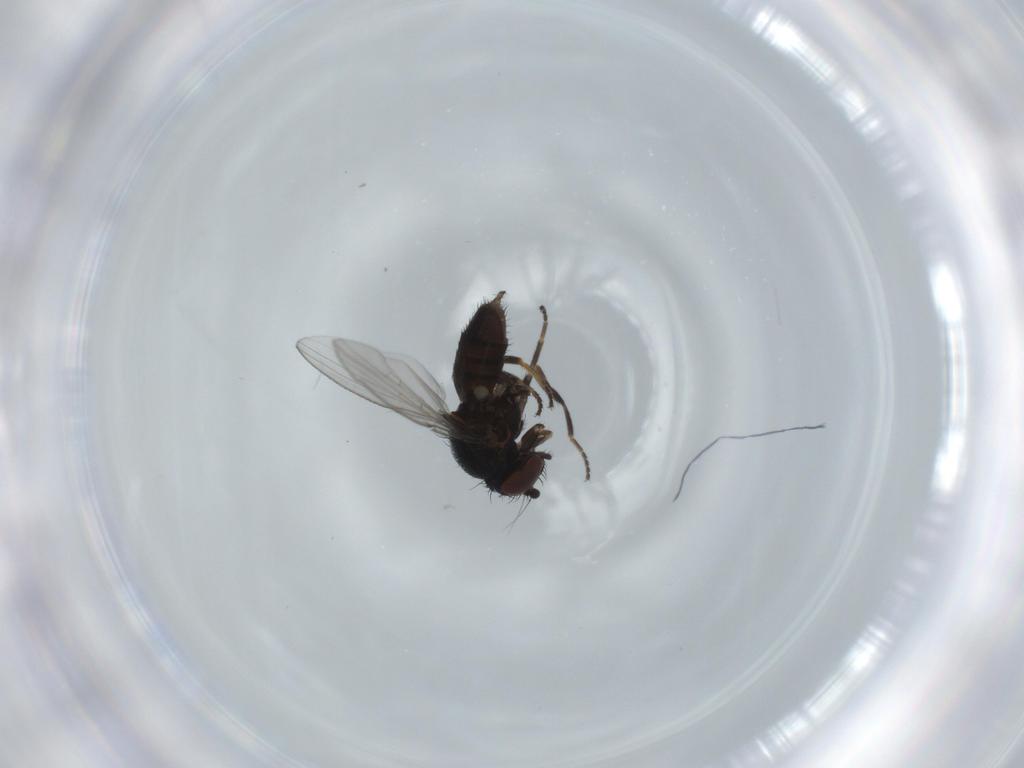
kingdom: Animalia
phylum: Arthropoda
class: Insecta
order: Diptera
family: Milichiidae
